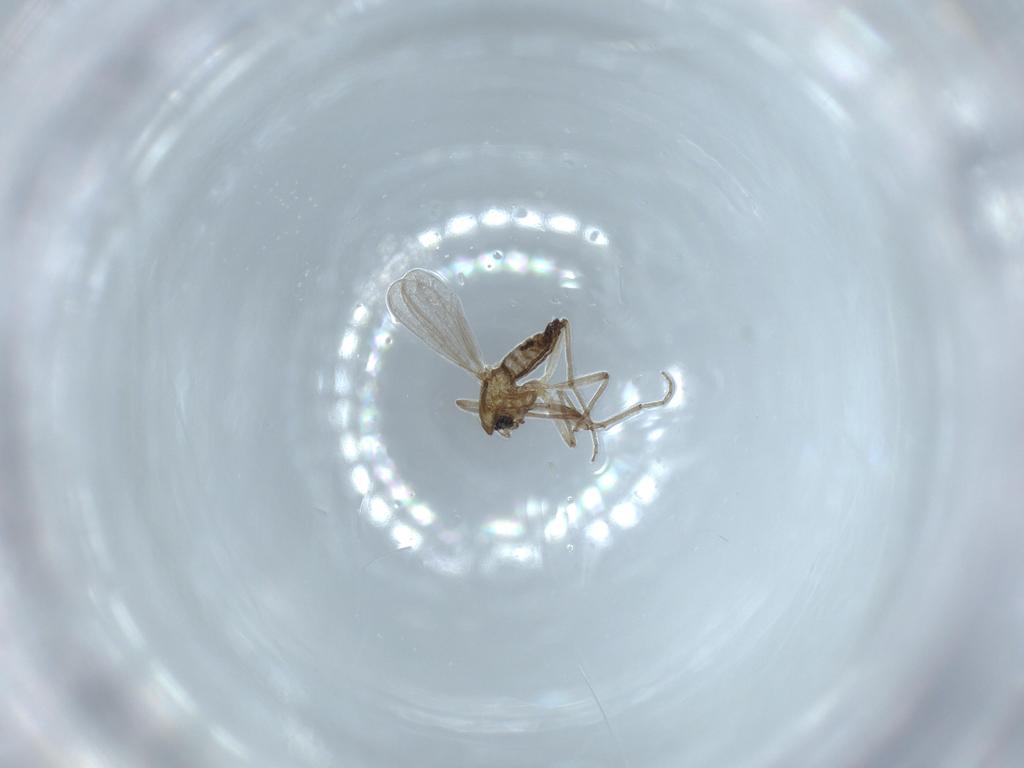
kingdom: Animalia
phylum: Arthropoda
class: Insecta
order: Diptera
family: Chironomidae
